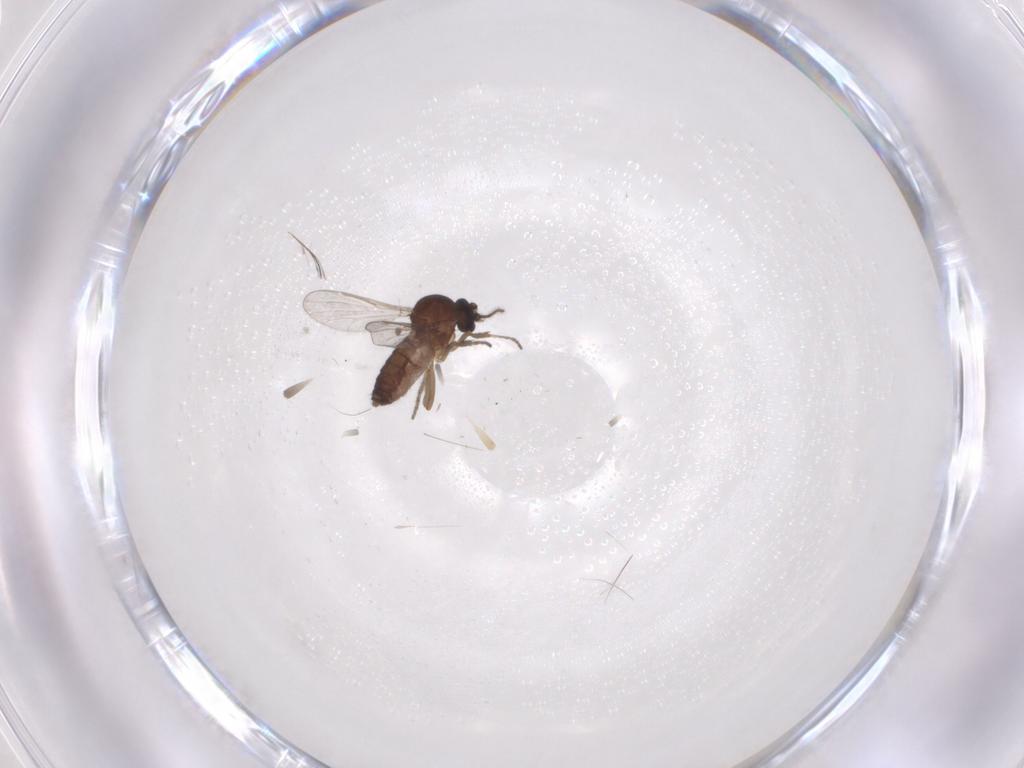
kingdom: Animalia
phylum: Arthropoda
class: Insecta
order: Diptera
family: Ceratopogonidae
